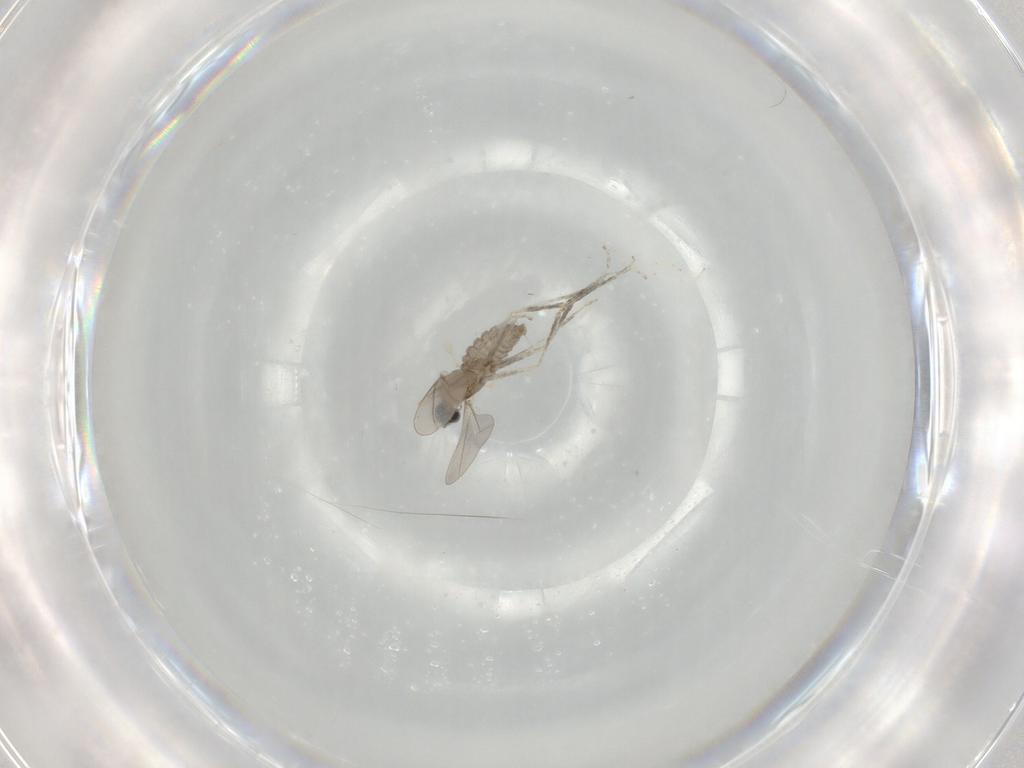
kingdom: Animalia
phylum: Arthropoda
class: Insecta
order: Diptera
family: Cecidomyiidae
